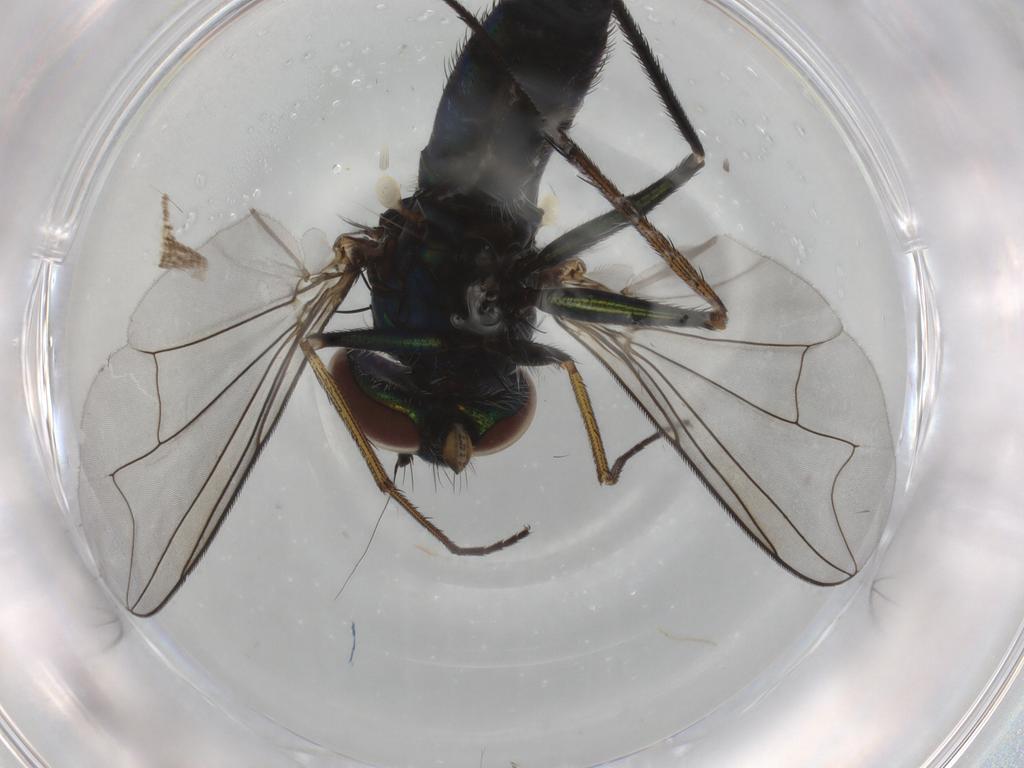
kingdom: Animalia
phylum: Arthropoda
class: Insecta
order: Diptera
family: Dolichopodidae
